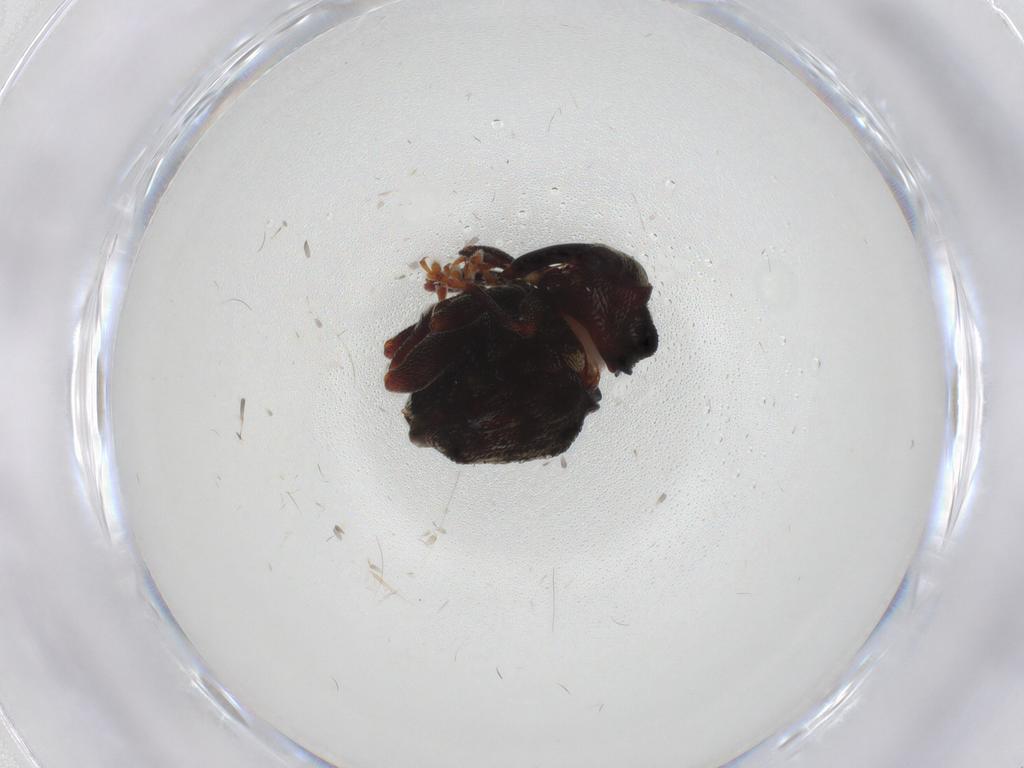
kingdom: Animalia
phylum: Arthropoda
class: Insecta
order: Coleoptera
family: Curculionidae
